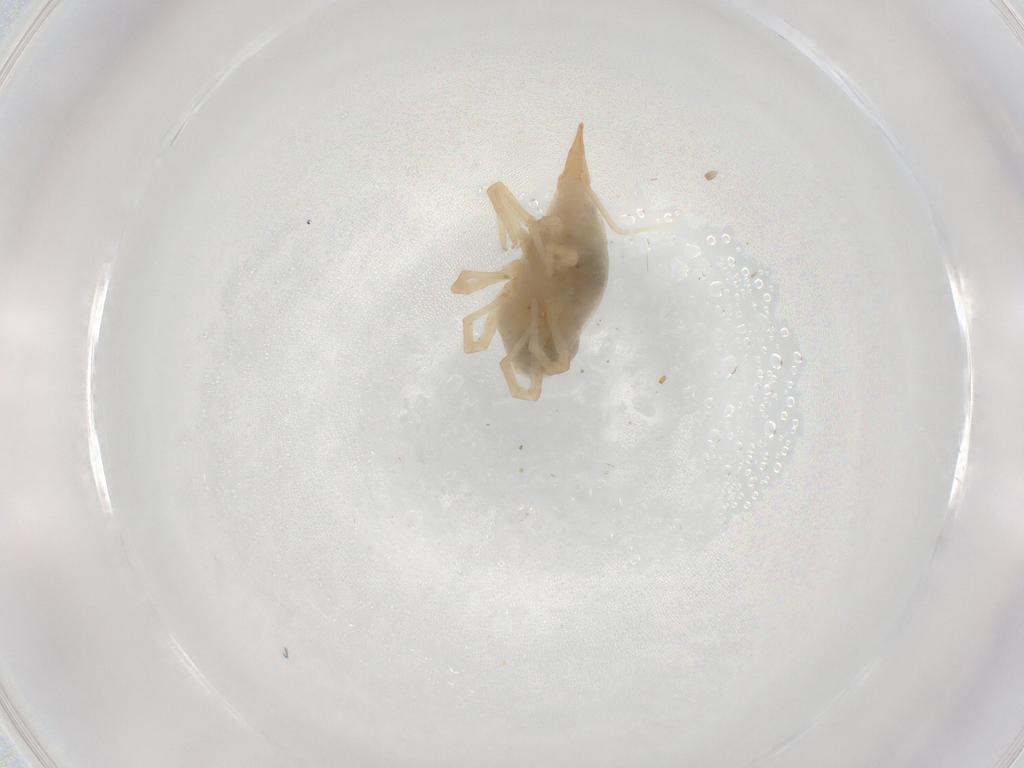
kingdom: Animalia
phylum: Arthropoda
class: Arachnida
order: Trombidiformes
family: Bdellidae
